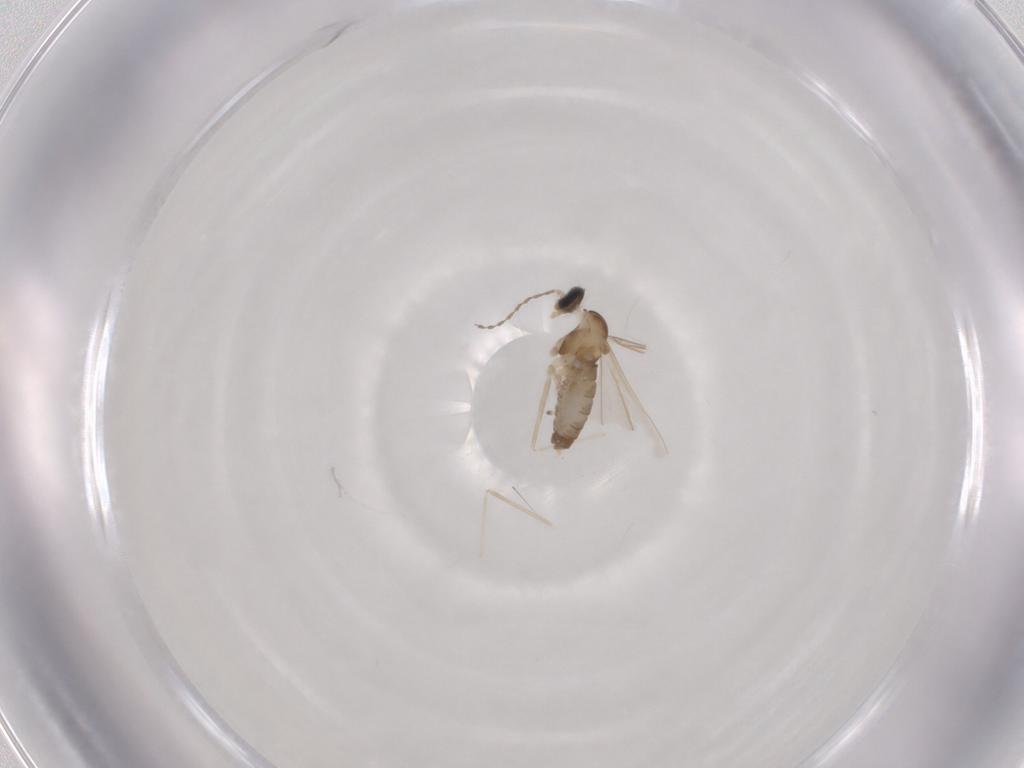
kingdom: Animalia
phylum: Arthropoda
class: Insecta
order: Diptera
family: Cecidomyiidae
